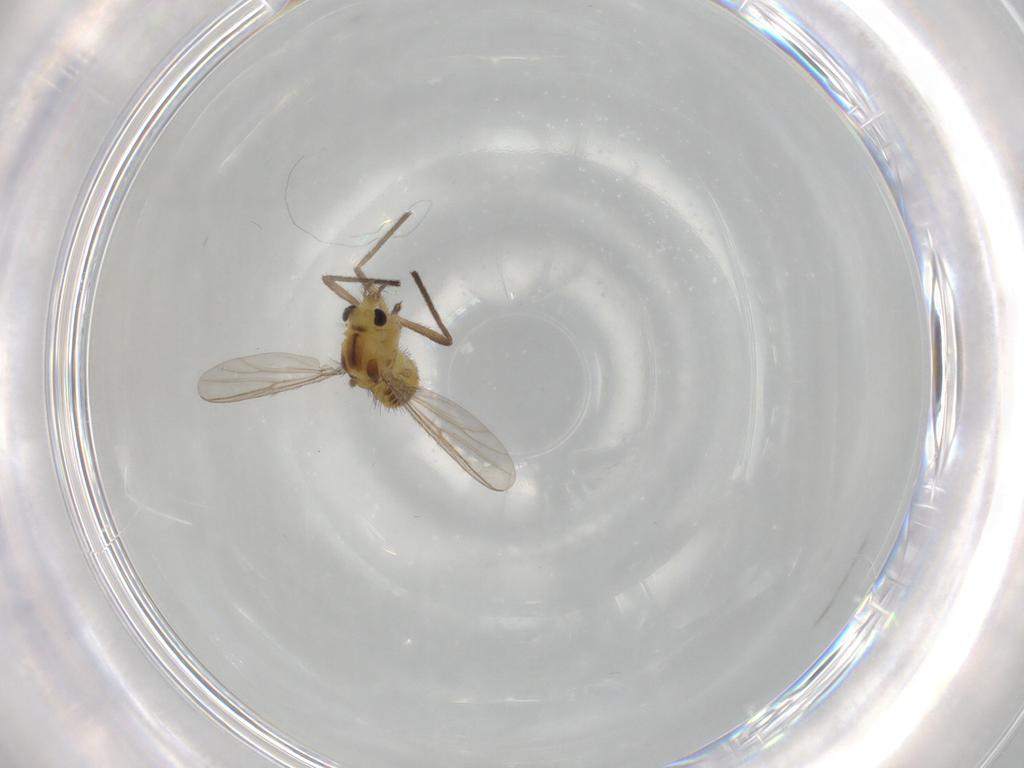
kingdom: Animalia
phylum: Arthropoda
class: Insecta
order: Diptera
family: Chironomidae
